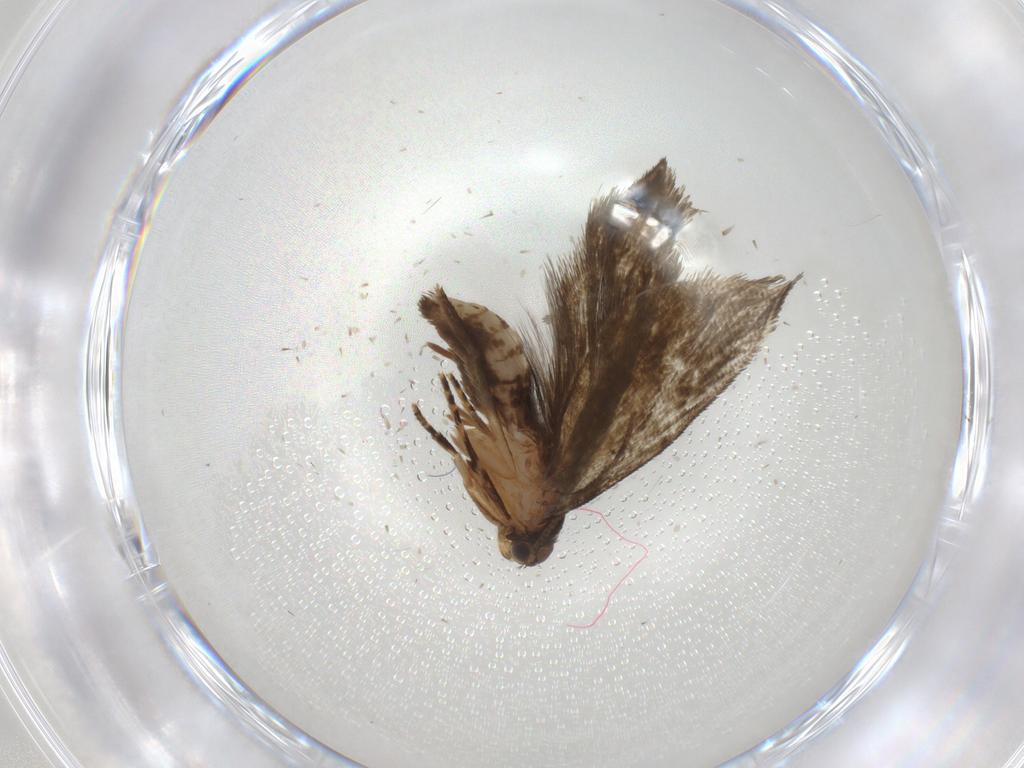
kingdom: Animalia
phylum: Arthropoda
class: Insecta
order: Lepidoptera
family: Crambidae
